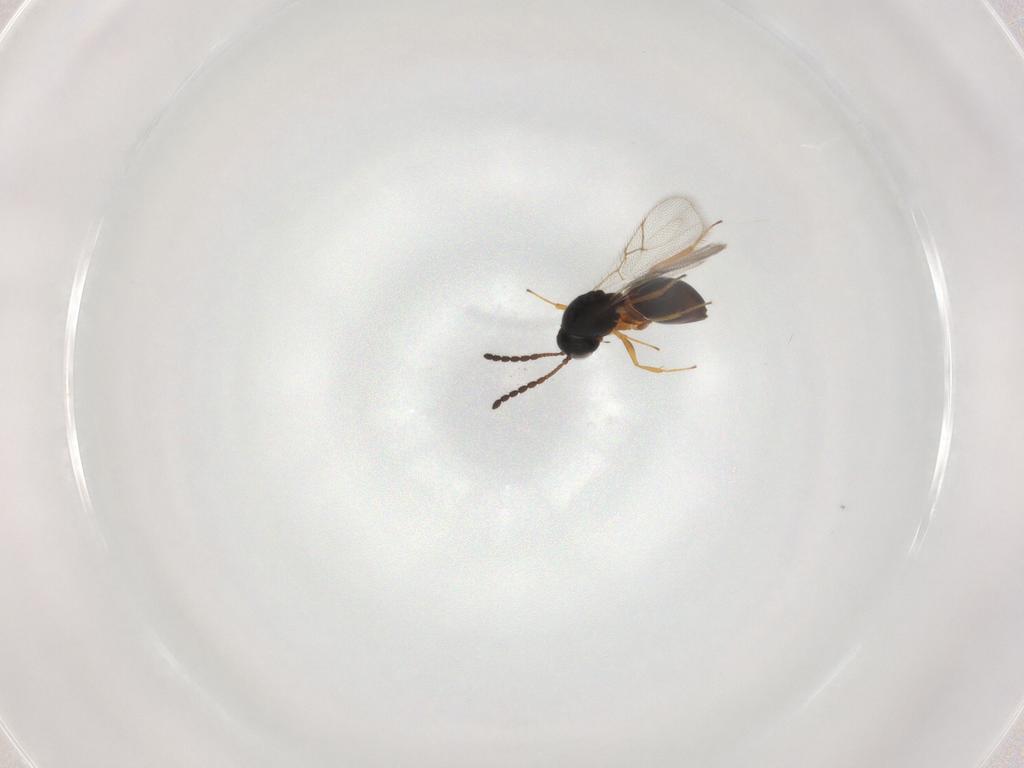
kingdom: Animalia
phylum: Arthropoda
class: Insecta
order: Hymenoptera
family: Figitidae
